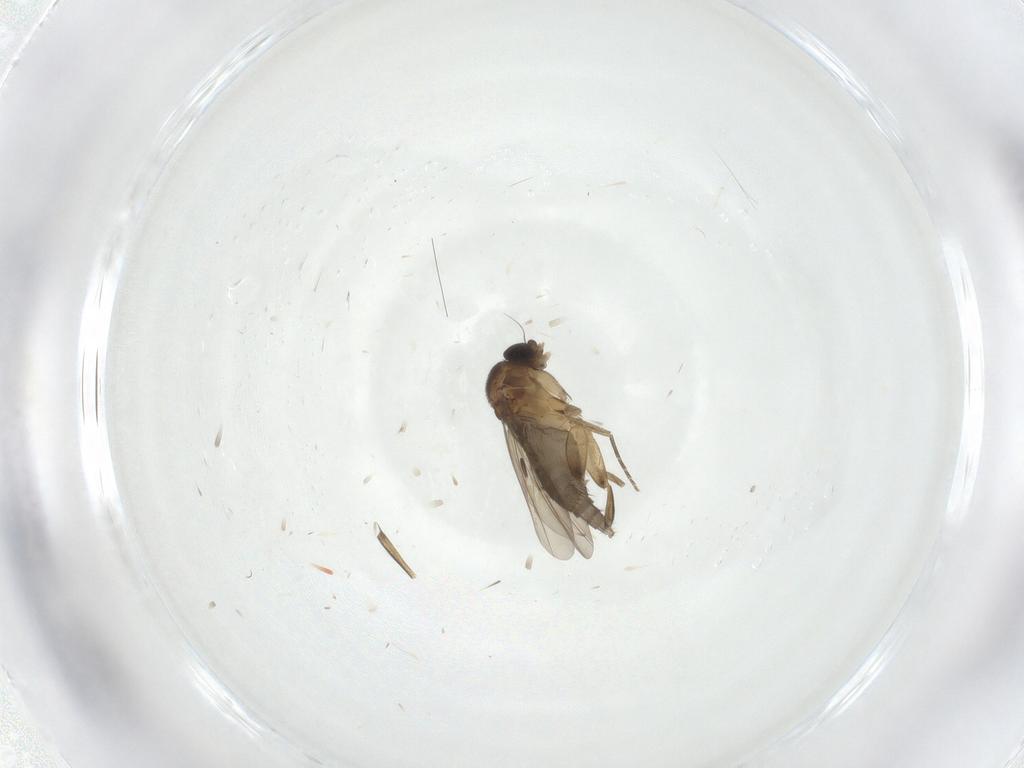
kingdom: Animalia
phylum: Arthropoda
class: Insecta
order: Diptera
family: Phoridae
